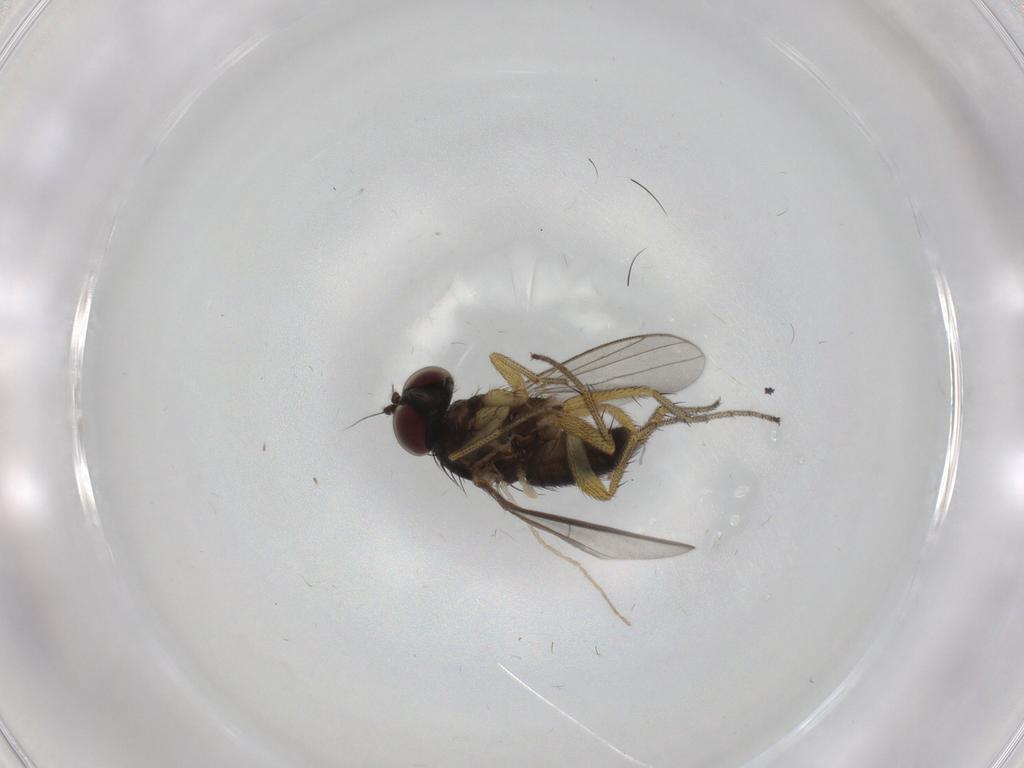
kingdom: Animalia
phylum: Arthropoda
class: Insecta
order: Diptera
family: Dolichopodidae
